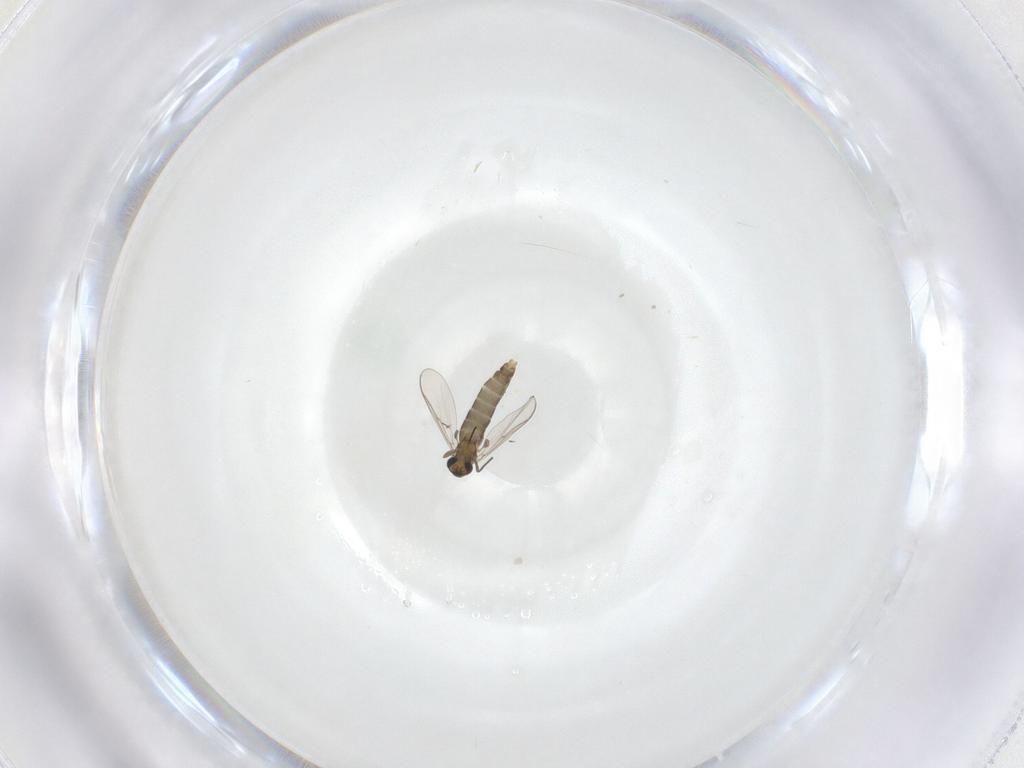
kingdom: Animalia
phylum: Arthropoda
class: Insecta
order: Diptera
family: Chironomidae
